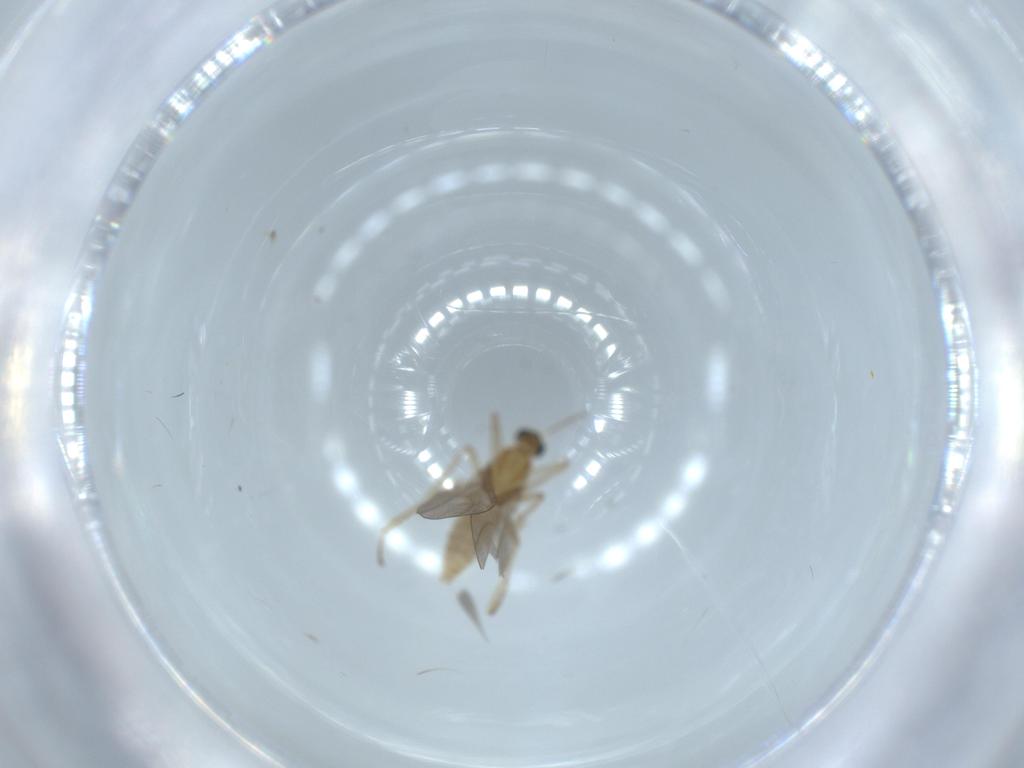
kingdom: Animalia
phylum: Arthropoda
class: Insecta
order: Diptera
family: Cecidomyiidae
